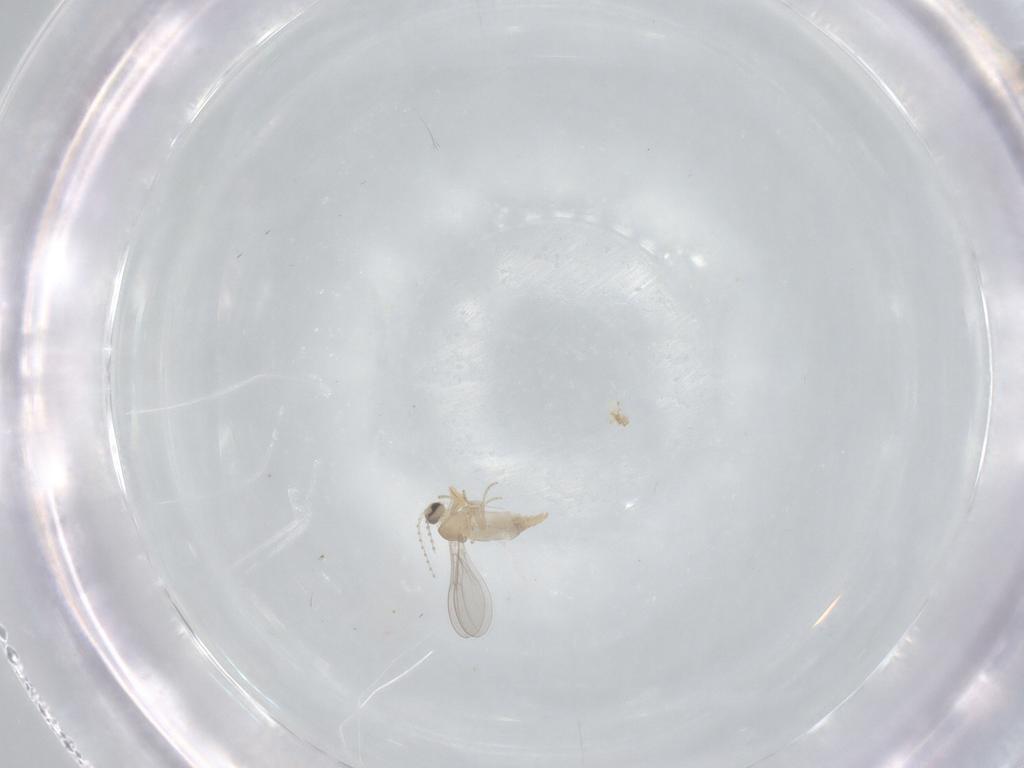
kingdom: Animalia
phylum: Arthropoda
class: Insecta
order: Diptera
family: Cecidomyiidae
